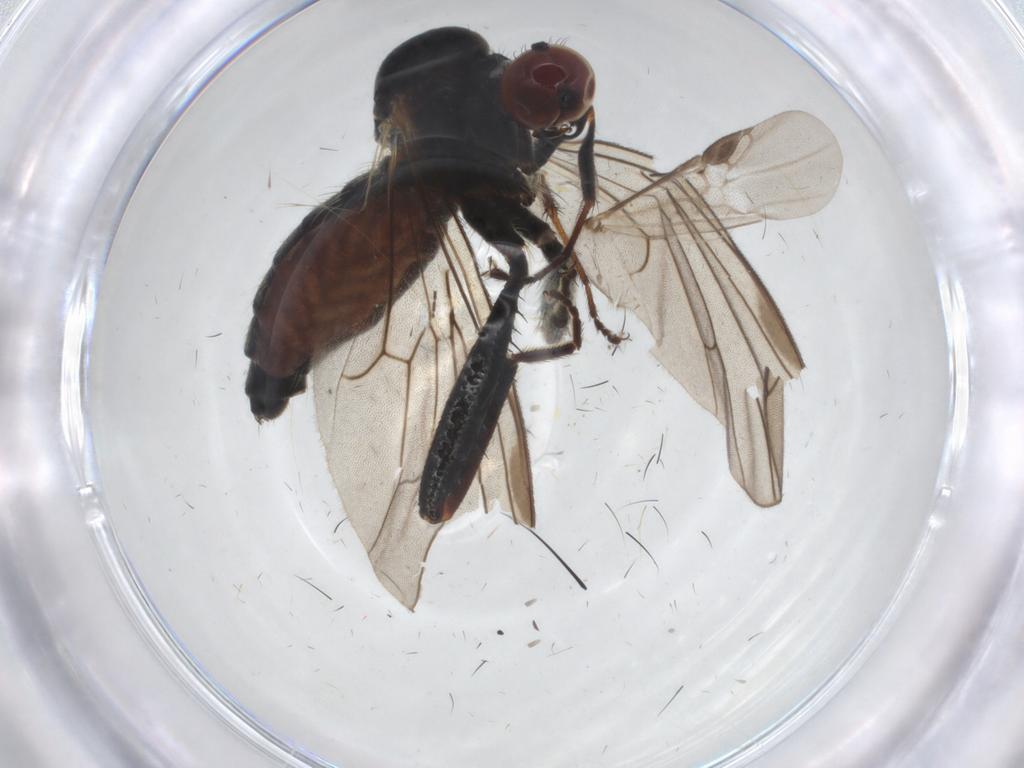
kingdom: Animalia
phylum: Arthropoda
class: Insecta
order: Diptera
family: Hybotidae
